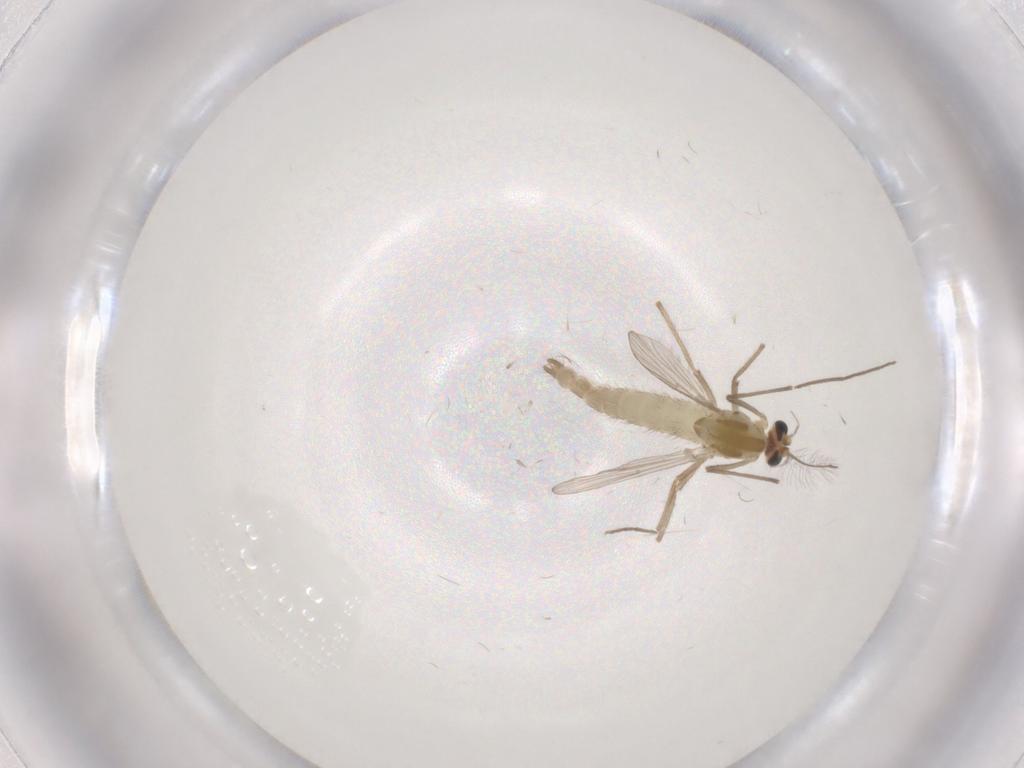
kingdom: Animalia
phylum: Arthropoda
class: Insecta
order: Diptera
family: Chironomidae
